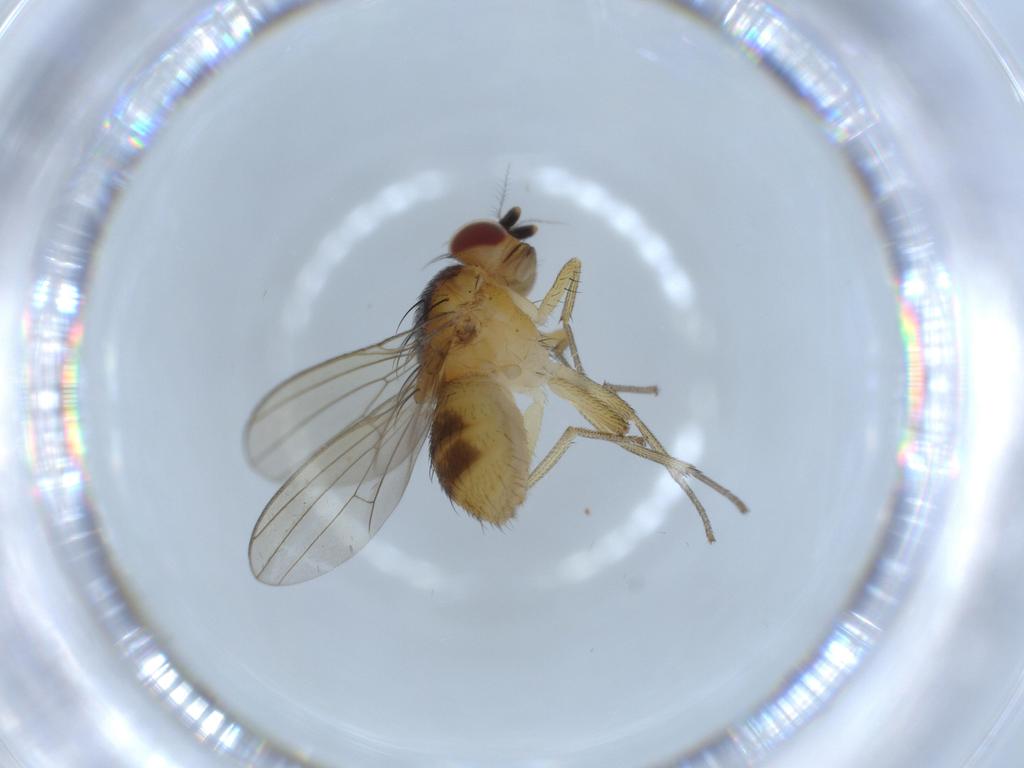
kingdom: Animalia
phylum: Arthropoda
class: Insecta
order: Diptera
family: Lauxaniidae
